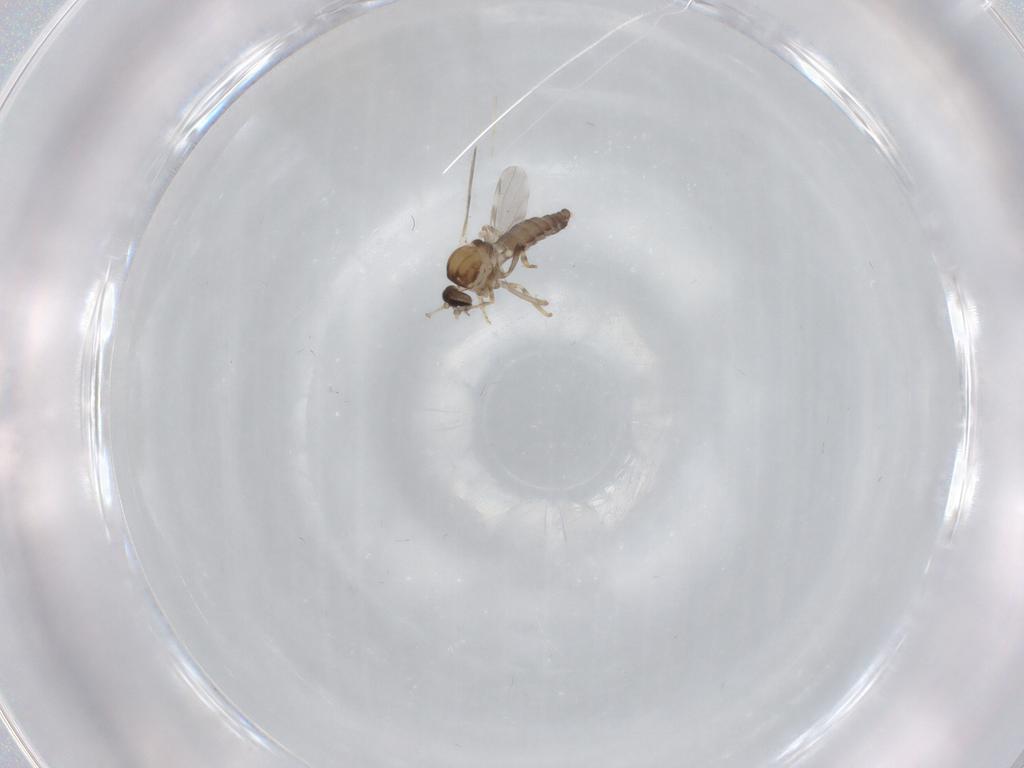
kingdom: Animalia
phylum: Arthropoda
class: Insecta
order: Diptera
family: Ceratopogonidae
